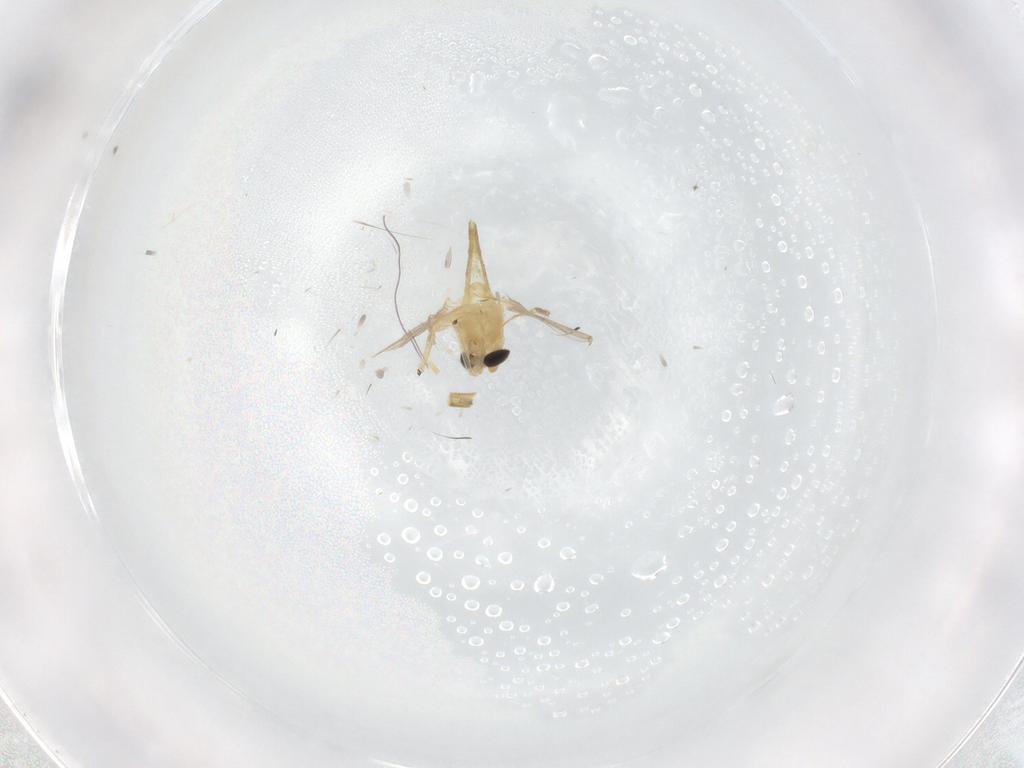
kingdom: Animalia
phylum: Arthropoda
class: Insecta
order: Diptera
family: Chironomidae
